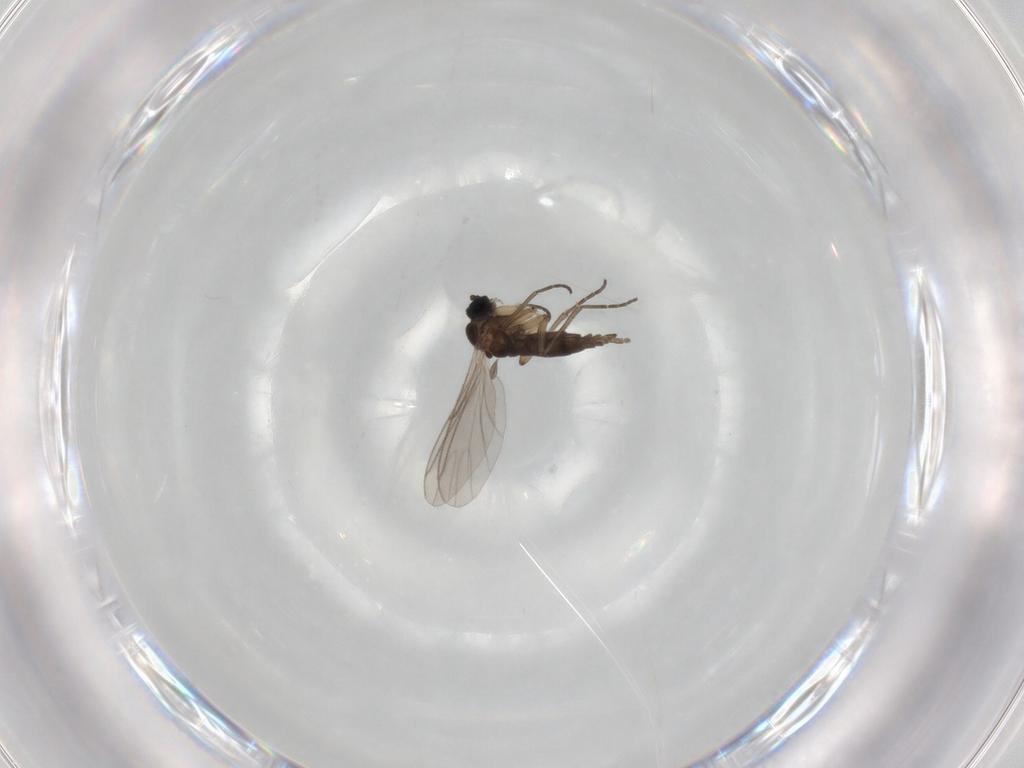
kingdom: Animalia
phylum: Arthropoda
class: Insecta
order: Diptera
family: Sciaridae
